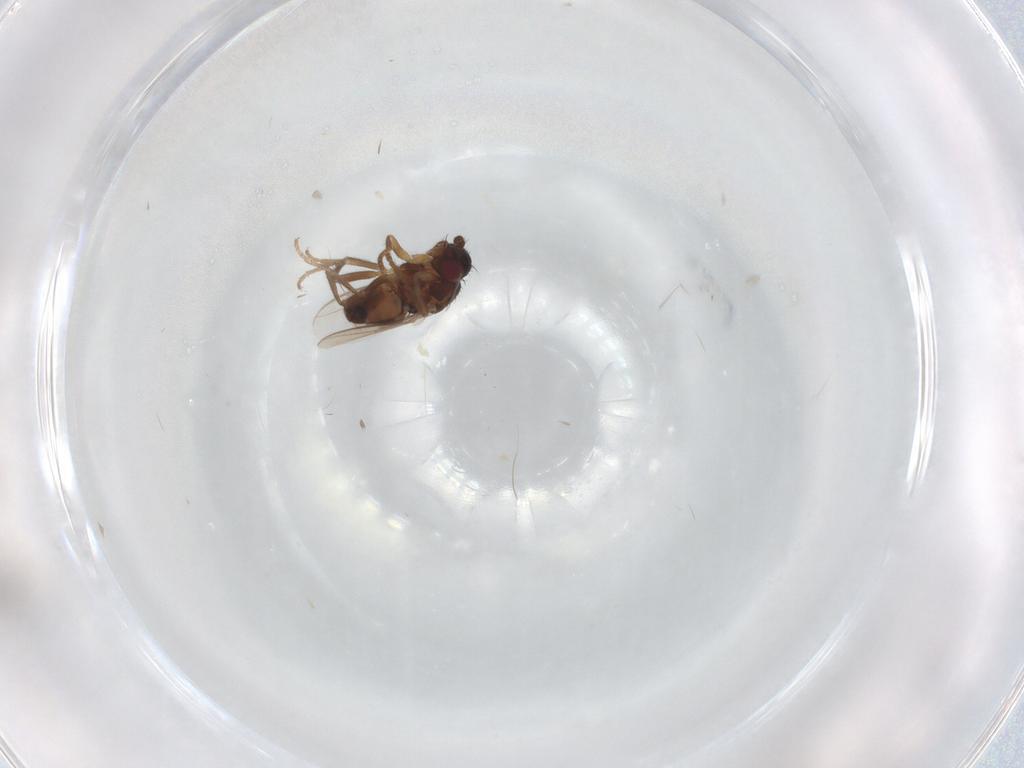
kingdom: Animalia
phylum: Arthropoda
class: Insecta
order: Diptera
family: Sphaeroceridae
